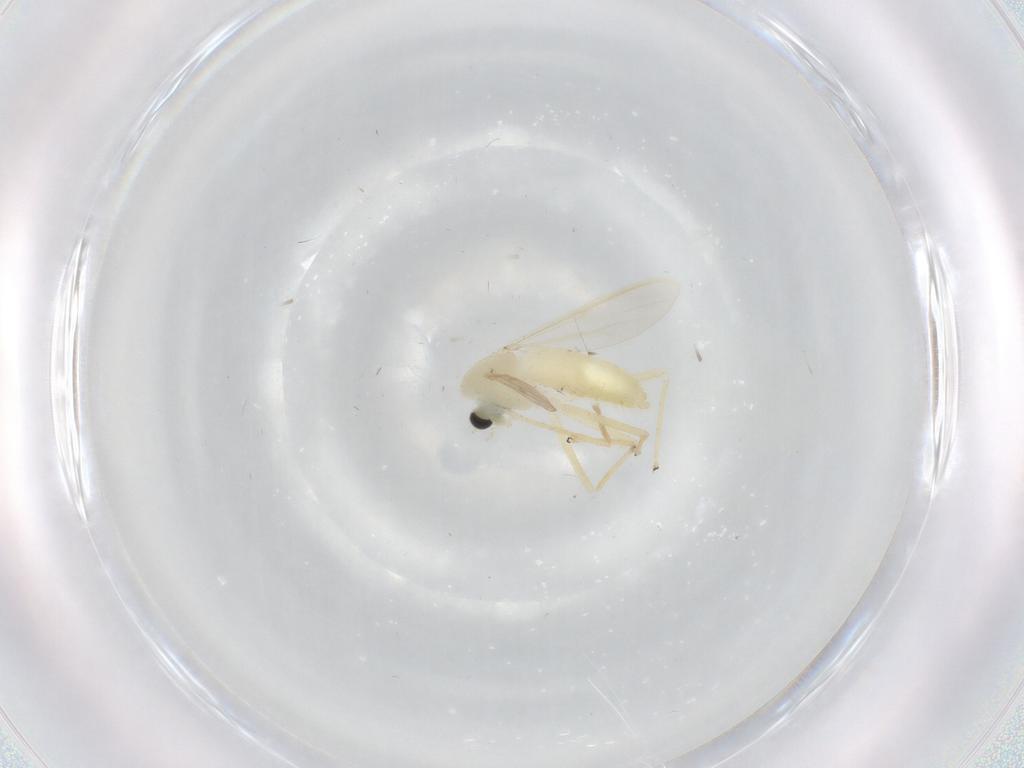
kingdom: Animalia
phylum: Arthropoda
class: Insecta
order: Diptera
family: Chironomidae
